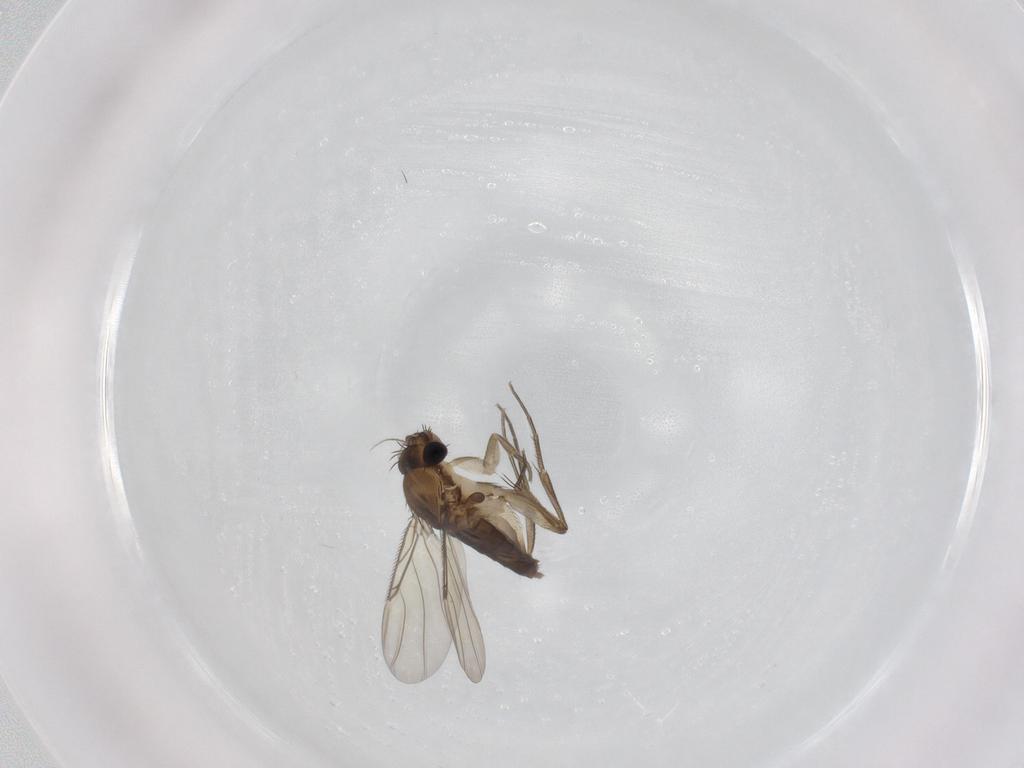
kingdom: Animalia
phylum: Arthropoda
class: Insecta
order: Diptera
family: Phoridae
